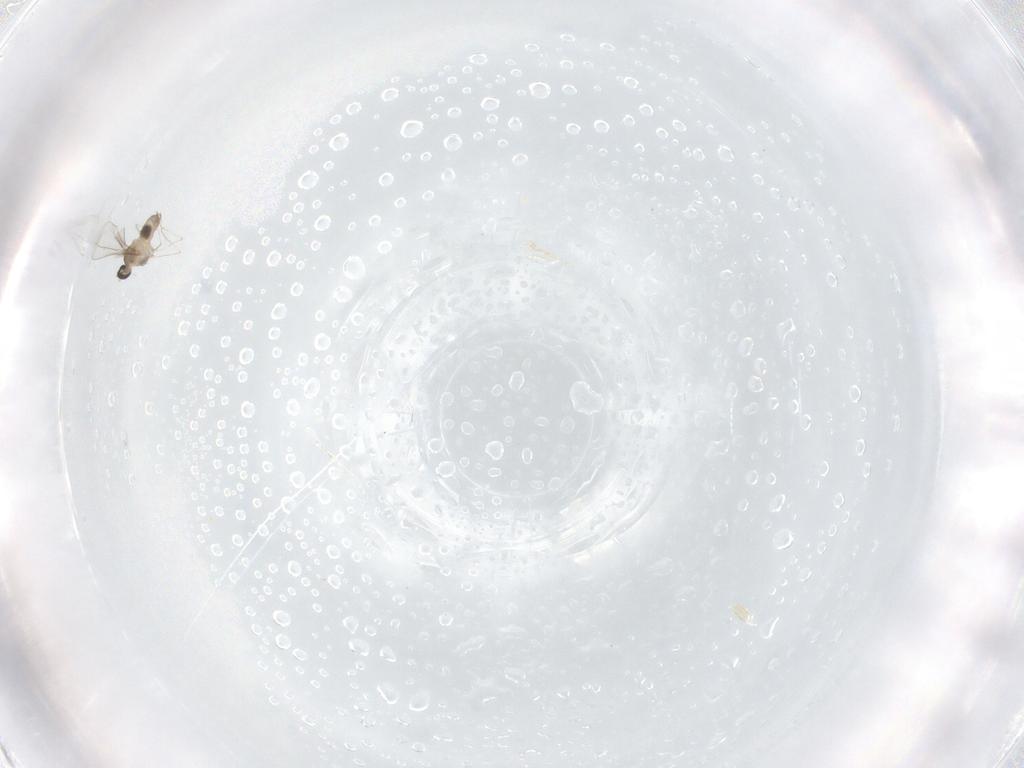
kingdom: Animalia
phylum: Arthropoda
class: Insecta
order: Diptera
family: Cecidomyiidae
